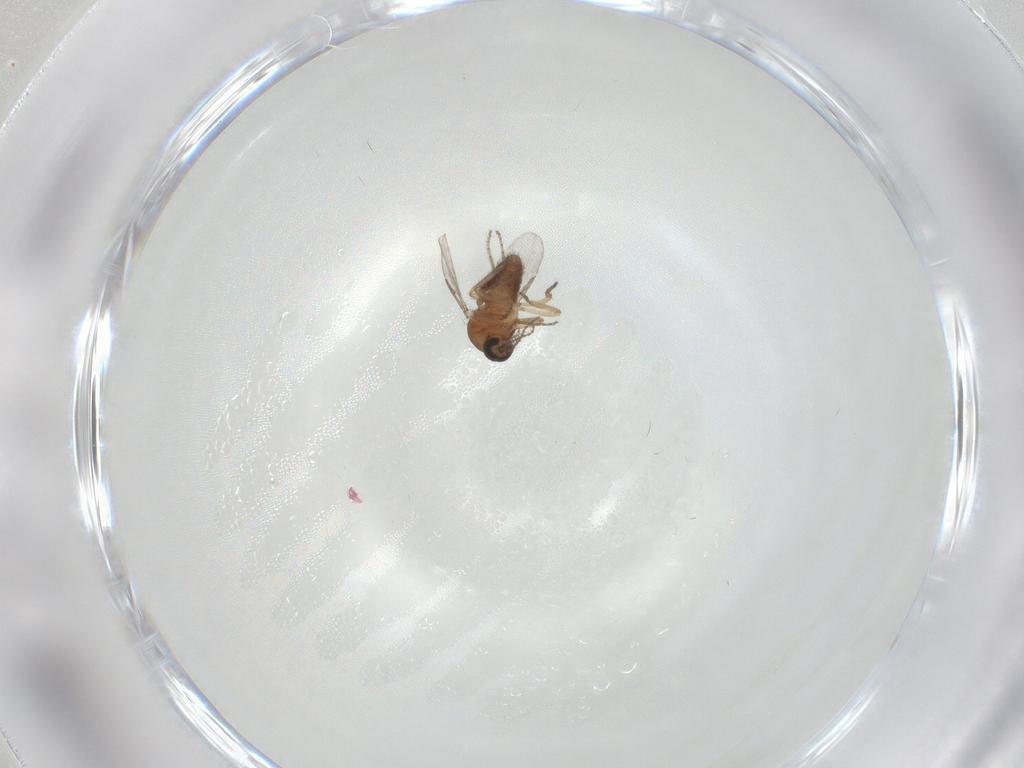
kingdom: Animalia
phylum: Arthropoda
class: Insecta
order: Diptera
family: Ceratopogonidae
